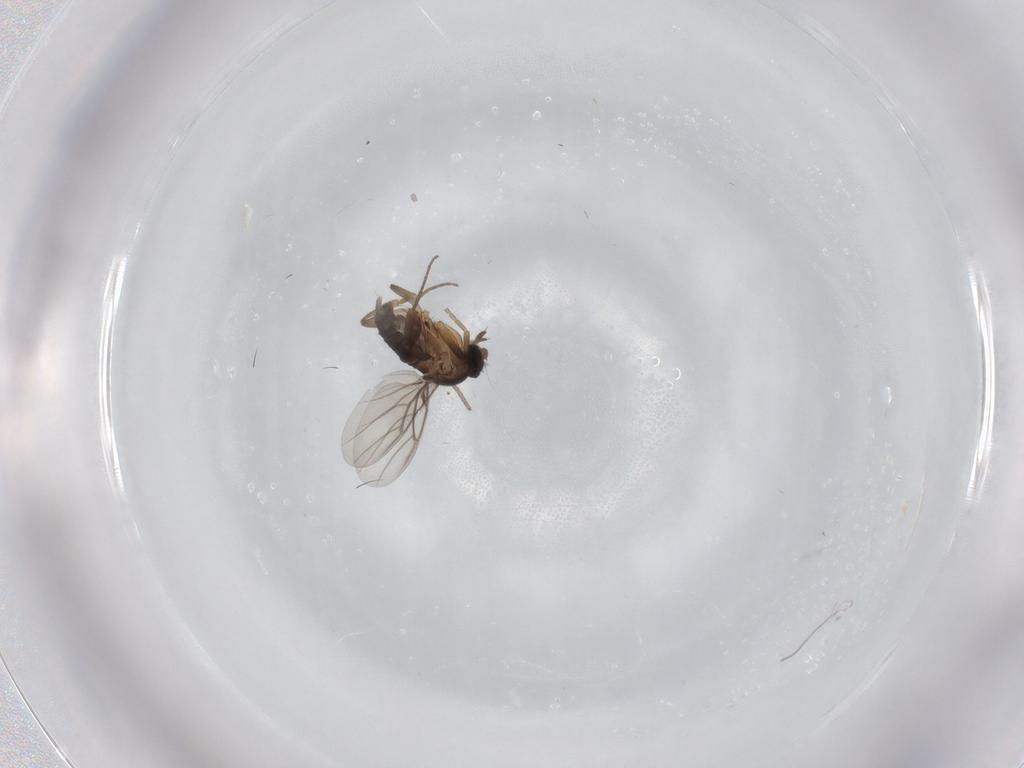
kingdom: Animalia
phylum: Arthropoda
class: Insecta
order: Diptera
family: Phoridae
